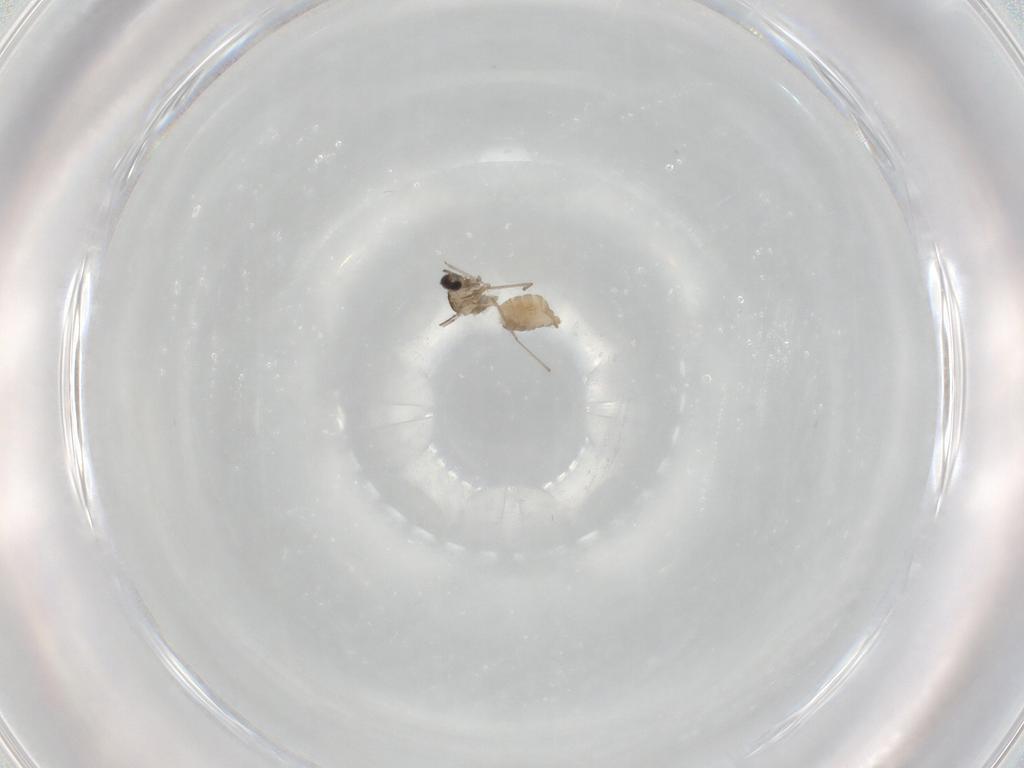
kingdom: Animalia
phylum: Arthropoda
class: Insecta
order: Diptera
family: Cecidomyiidae
